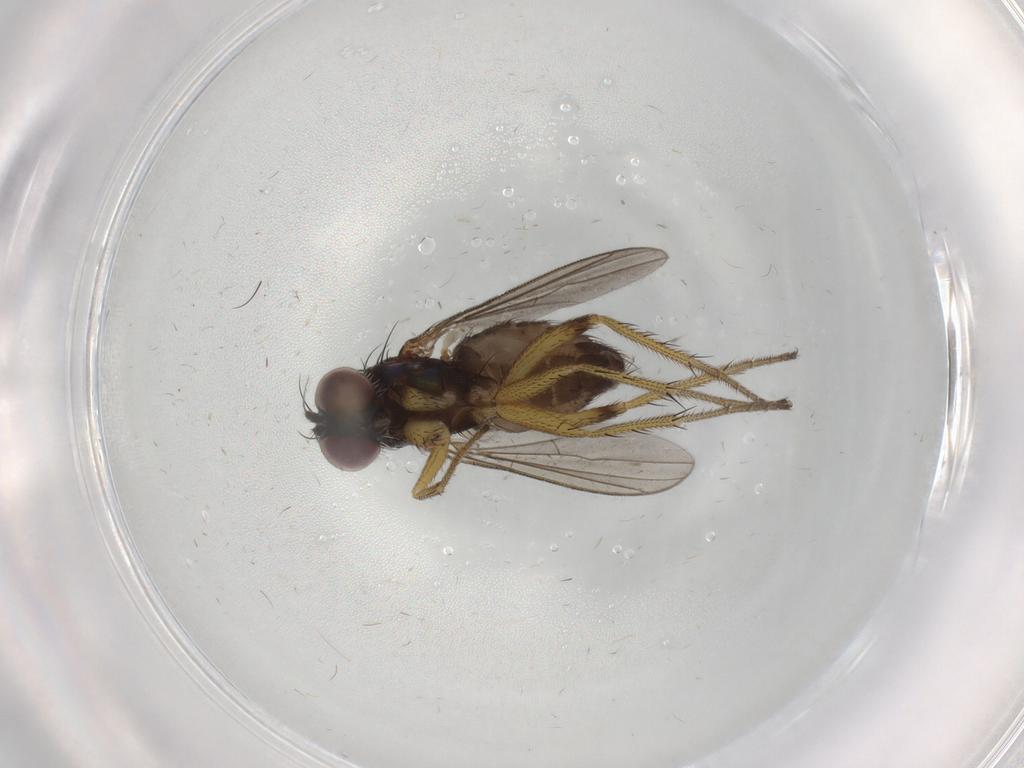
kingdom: Animalia
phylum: Arthropoda
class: Insecta
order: Diptera
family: Dolichopodidae
